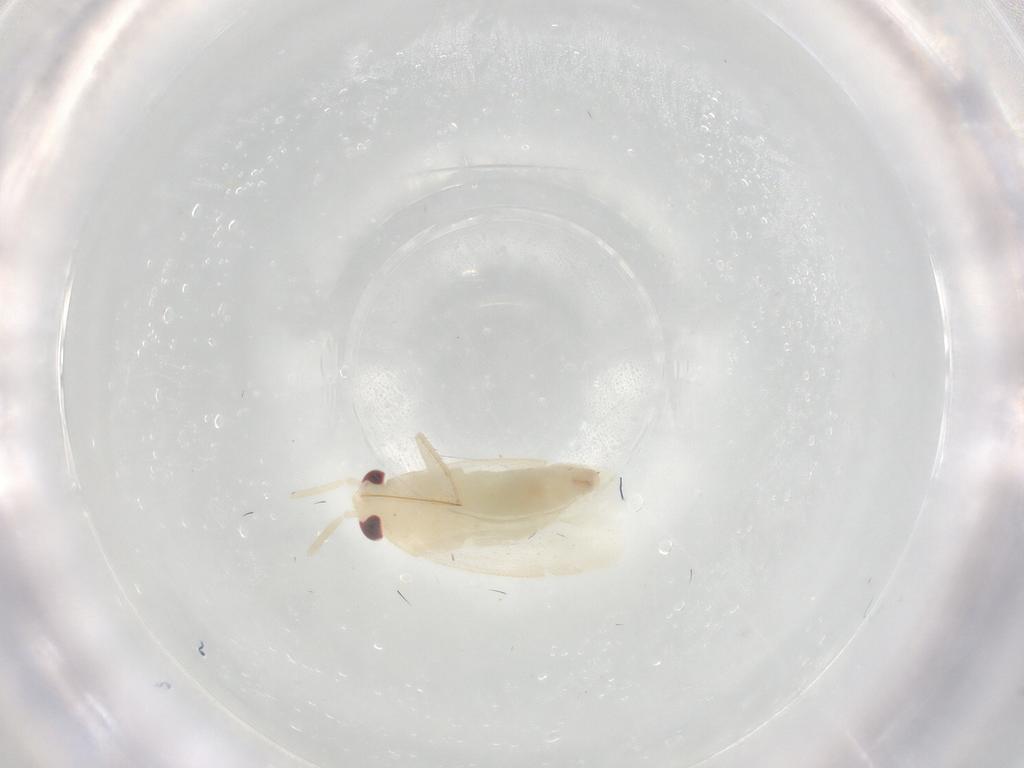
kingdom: Animalia
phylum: Arthropoda
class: Insecta
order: Hemiptera
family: Miridae
